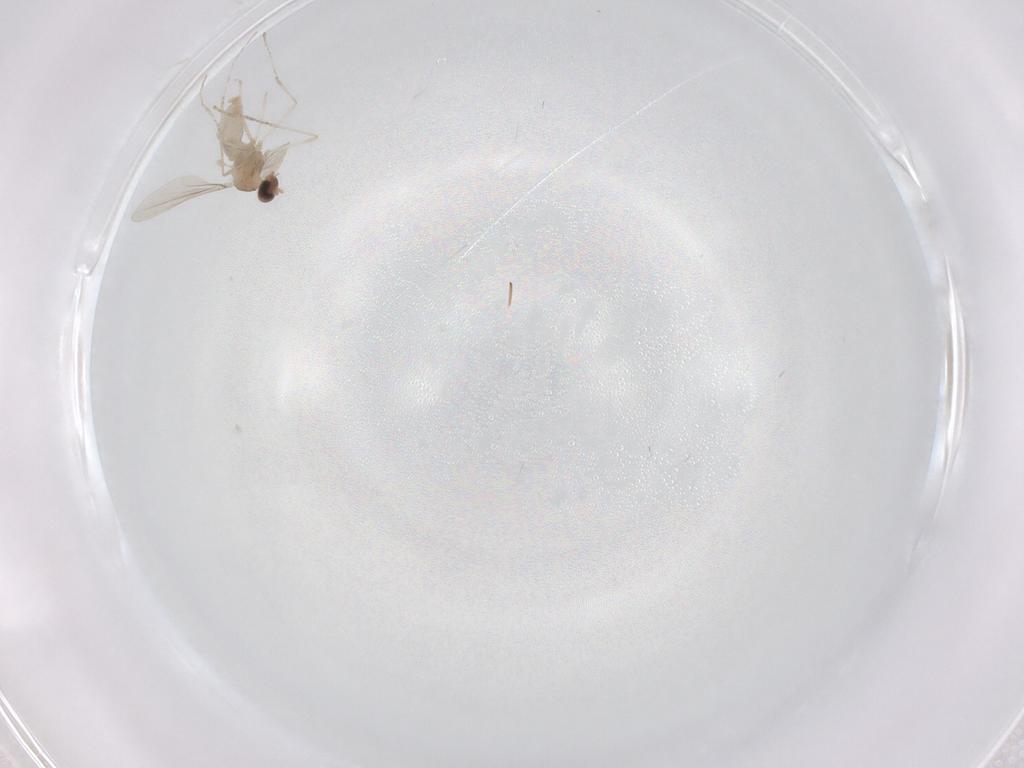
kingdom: Animalia
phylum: Arthropoda
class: Insecta
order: Diptera
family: Cecidomyiidae
